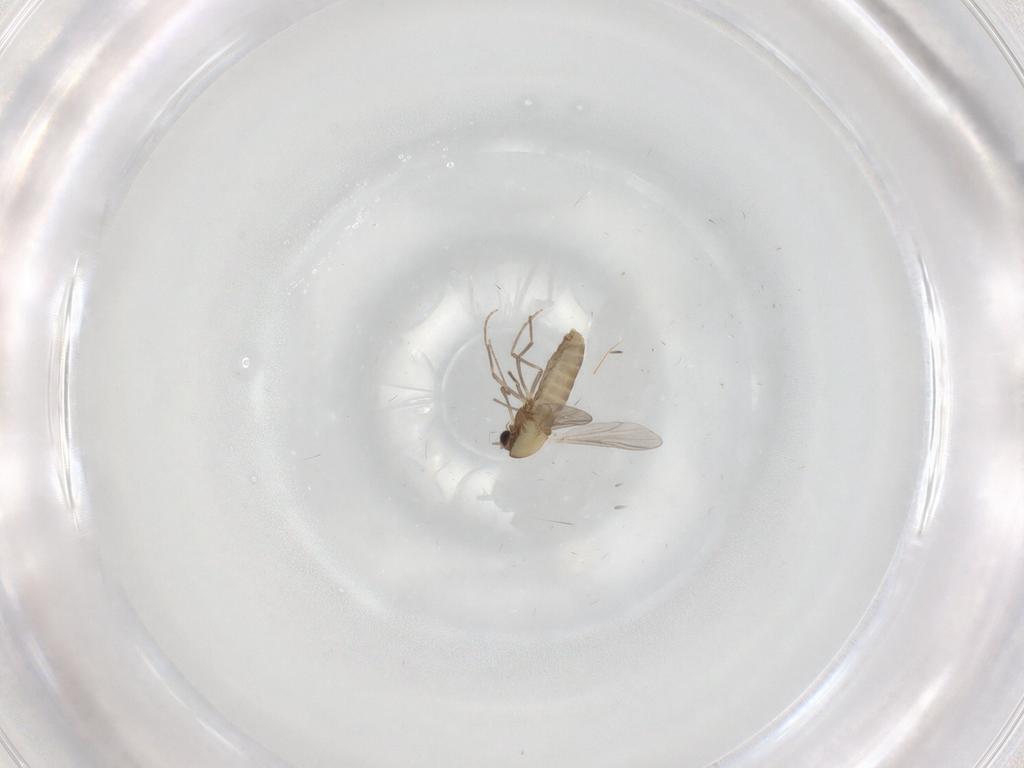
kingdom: Animalia
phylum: Arthropoda
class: Insecta
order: Diptera
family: Chironomidae
